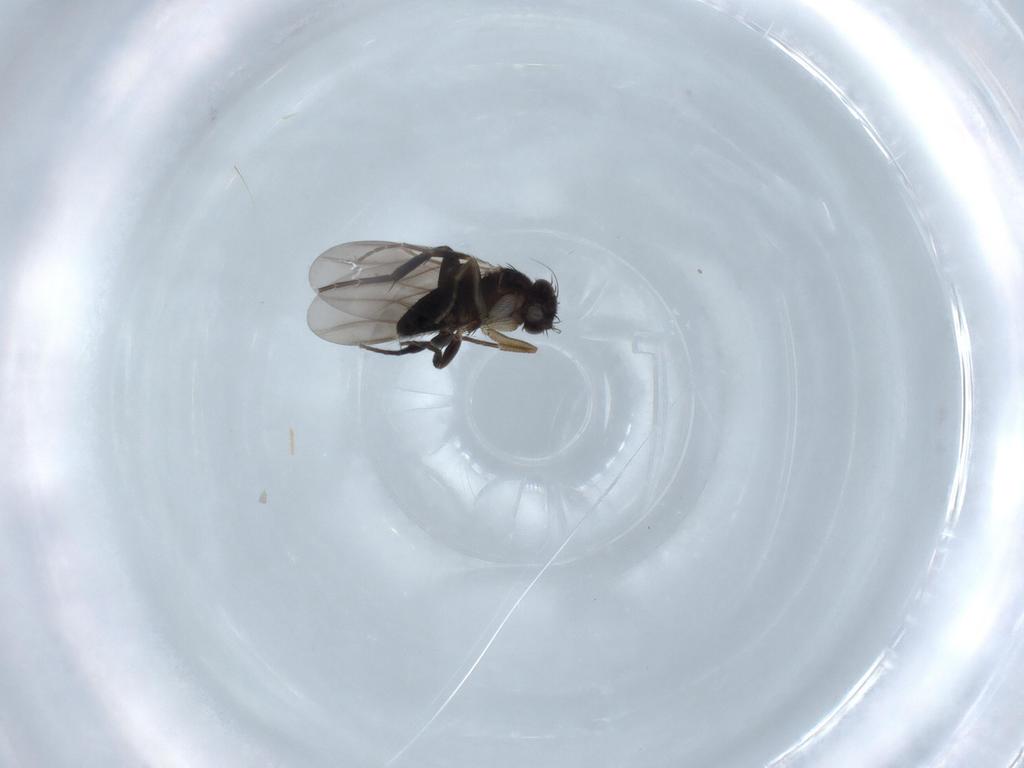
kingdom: Animalia
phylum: Arthropoda
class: Insecta
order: Diptera
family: Phoridae
